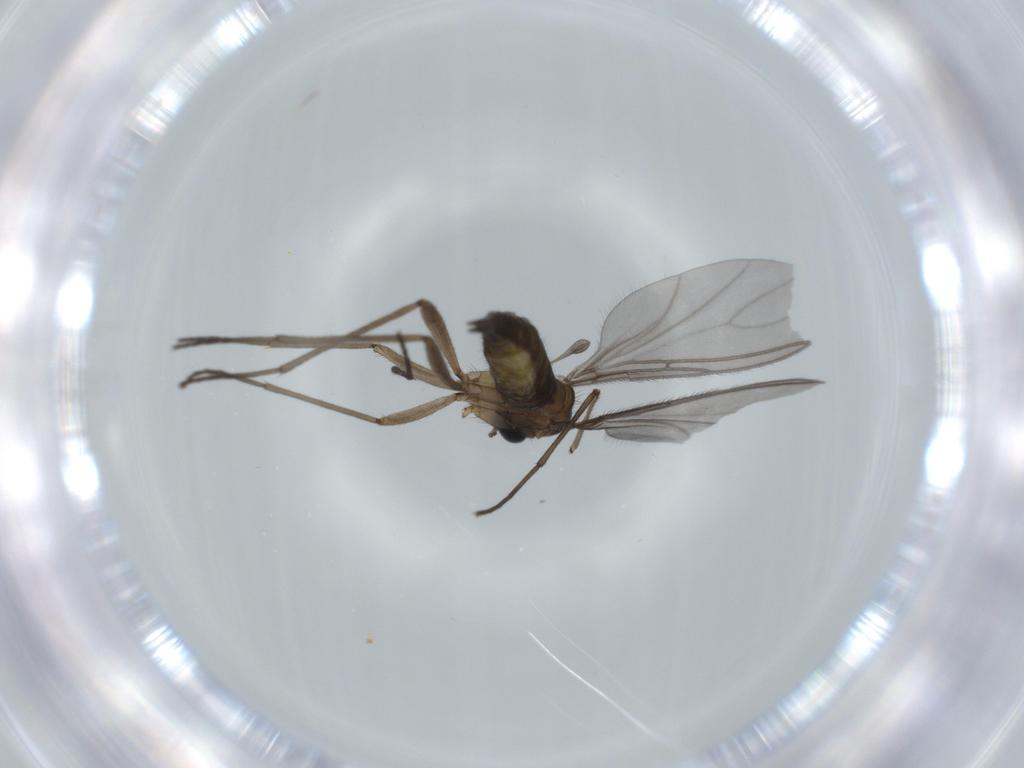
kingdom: Animalia
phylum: Arthropoda
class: Insecta
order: Diptera
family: Sciaridae
